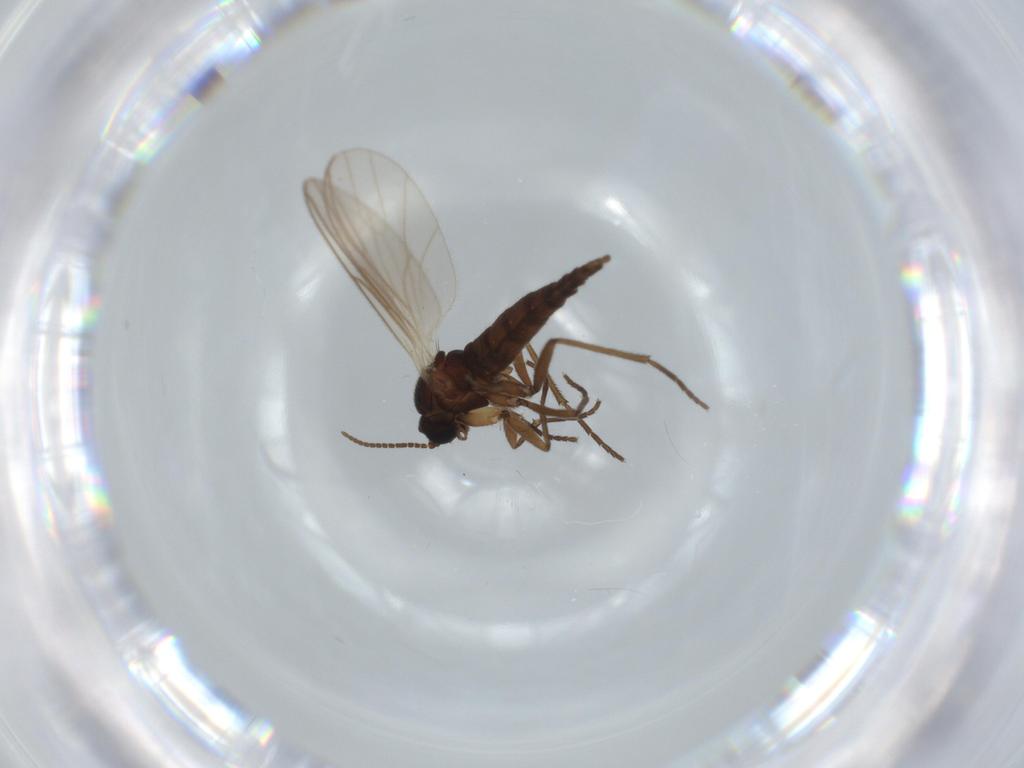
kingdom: Animalia
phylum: Arthropoda
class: Insecta
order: Diptera
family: Sciaridae
